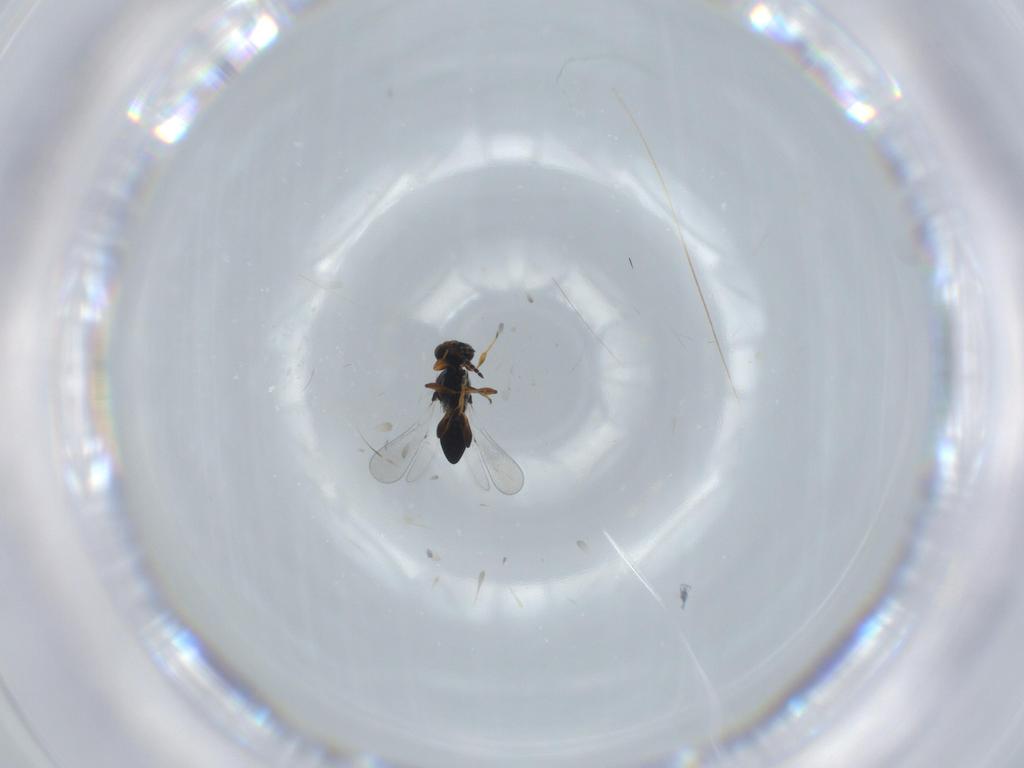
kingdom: Animalia
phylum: Arthropoda
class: Insecta
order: Hymenoptera
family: Platygastridae
